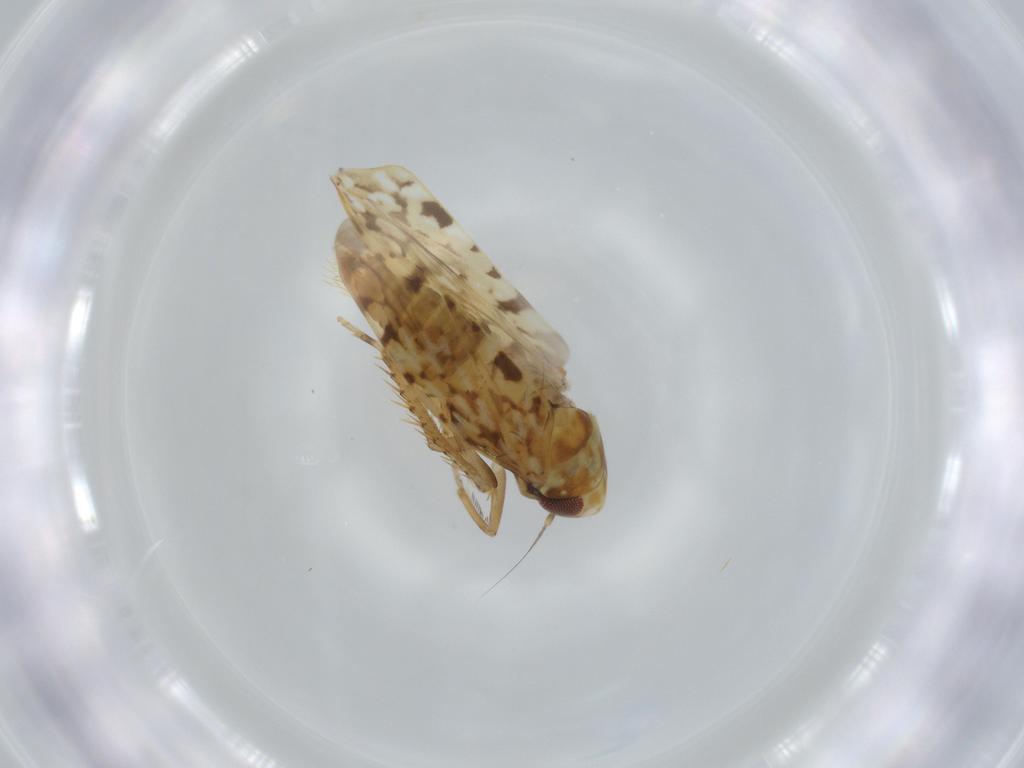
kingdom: Animalia
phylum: Arthropoda
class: Insecta
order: Hemiptera
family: Cicadellidae
